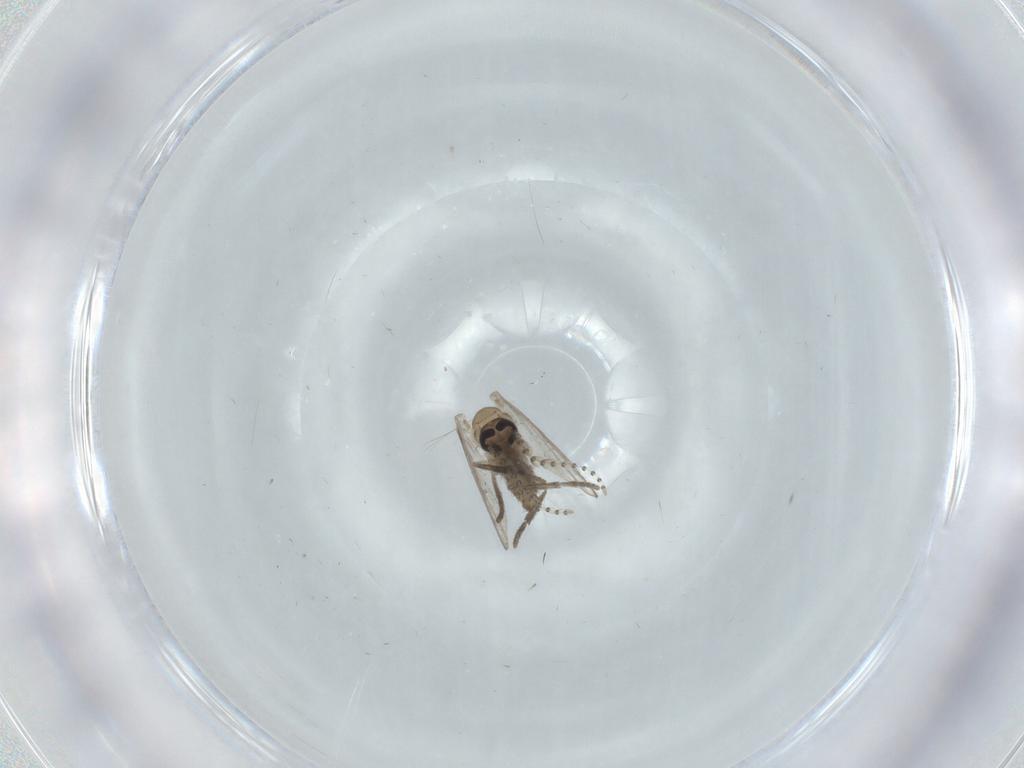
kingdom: Animalia
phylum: Arthropoda
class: Insecta
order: Diptera
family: Psychodidae
